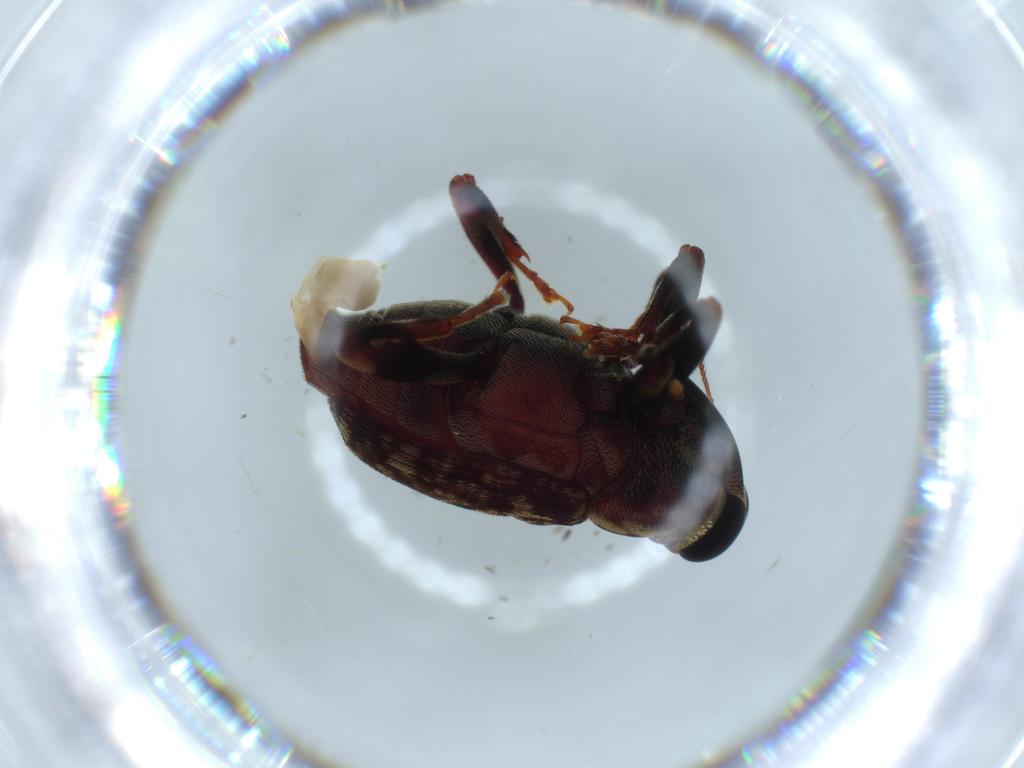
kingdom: Animalia
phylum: Arthropoda
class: Insecta
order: Coleoptera
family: Curculionidae
